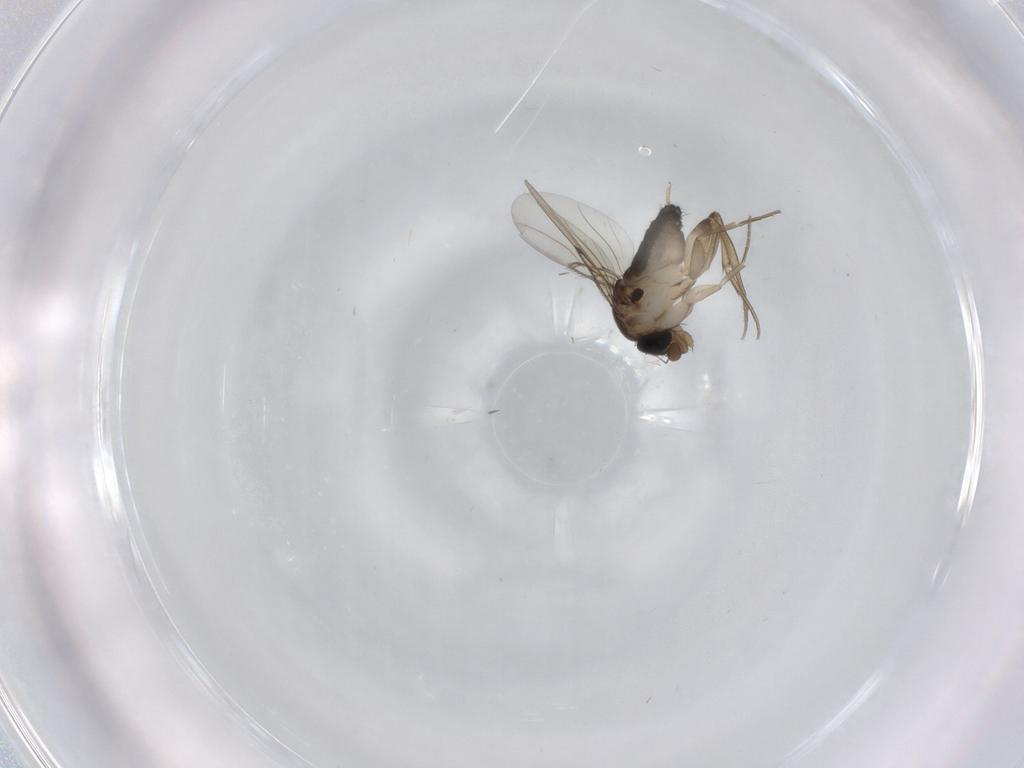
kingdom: Animalia
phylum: Arthropoda
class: Insecta
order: Diptera
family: Phoridae
